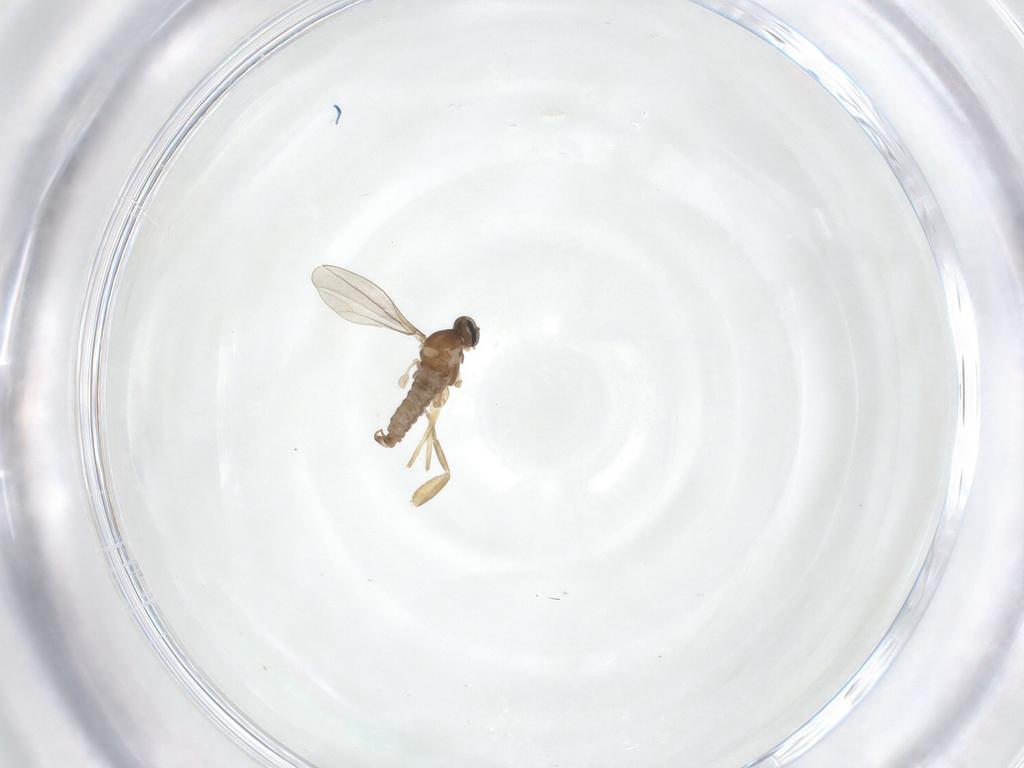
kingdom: Animalia
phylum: Arthropoda
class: Insecta
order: Diptera
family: Cecidomyiidae
